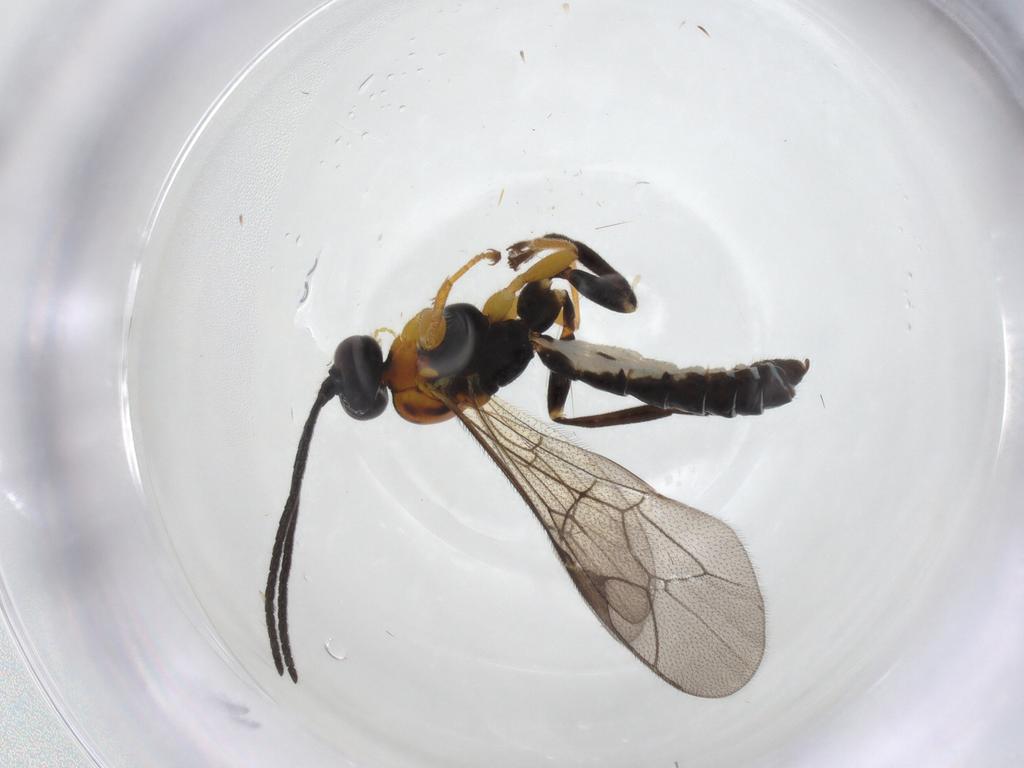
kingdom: Animalia
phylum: Arthropoda
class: Insecta
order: Hymenoptera
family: Ichneumonidae
